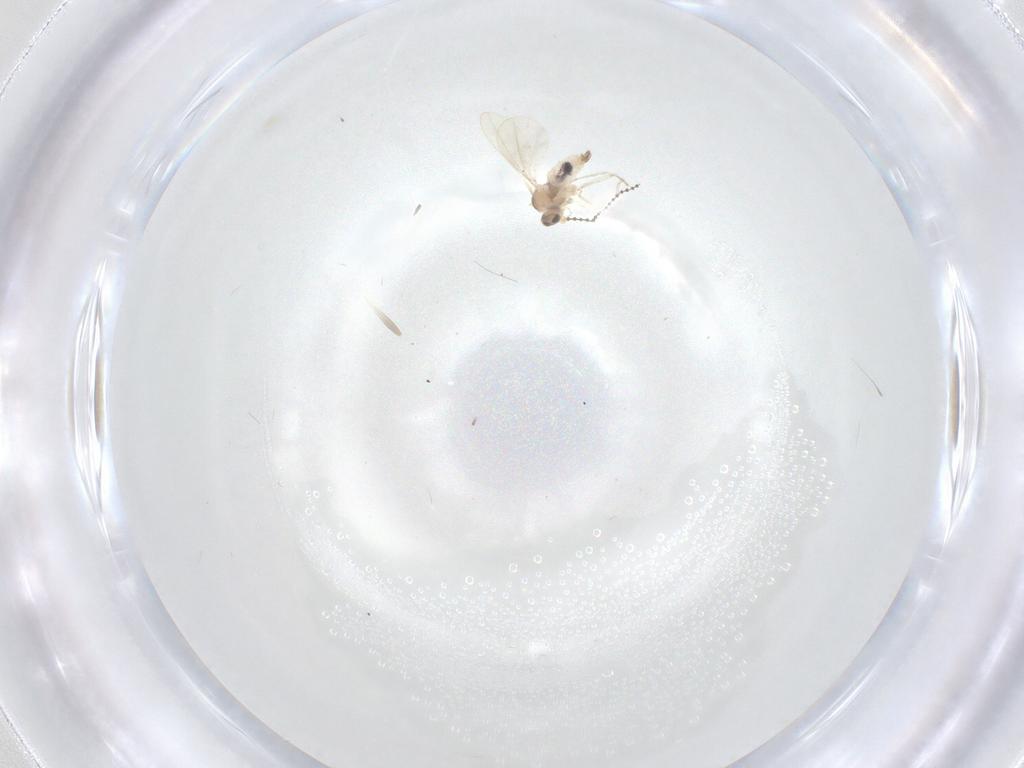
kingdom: Animalia
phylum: Arthropoda
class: Insecta
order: Diptera
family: Cecidomyiidae
